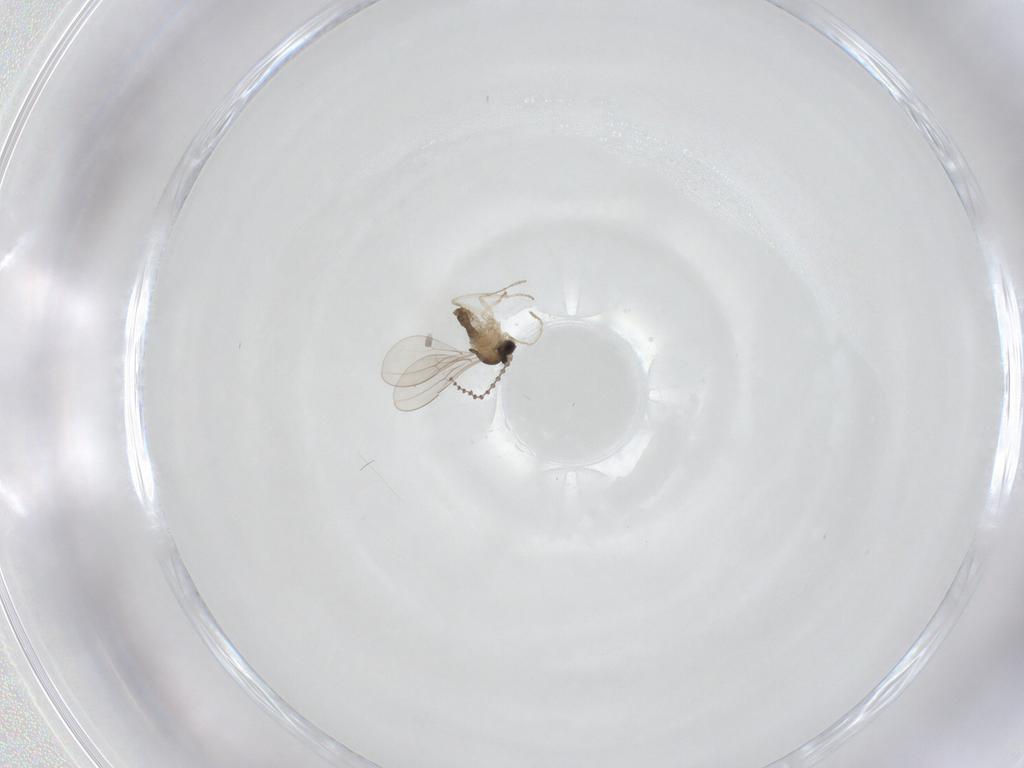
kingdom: Animalia
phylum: Arthropoda
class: Insecta
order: Diptera
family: Cecidomyiidae
